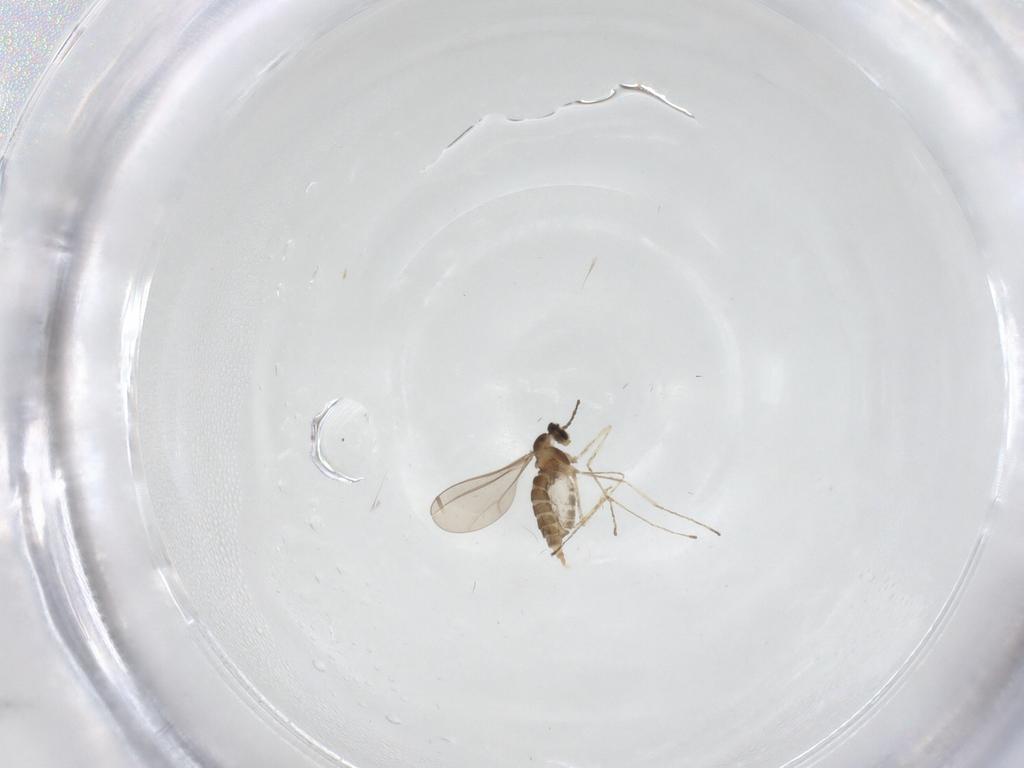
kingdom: Animalia
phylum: Arthropoda
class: Insecta
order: Diptera
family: Cecidomyiidae
